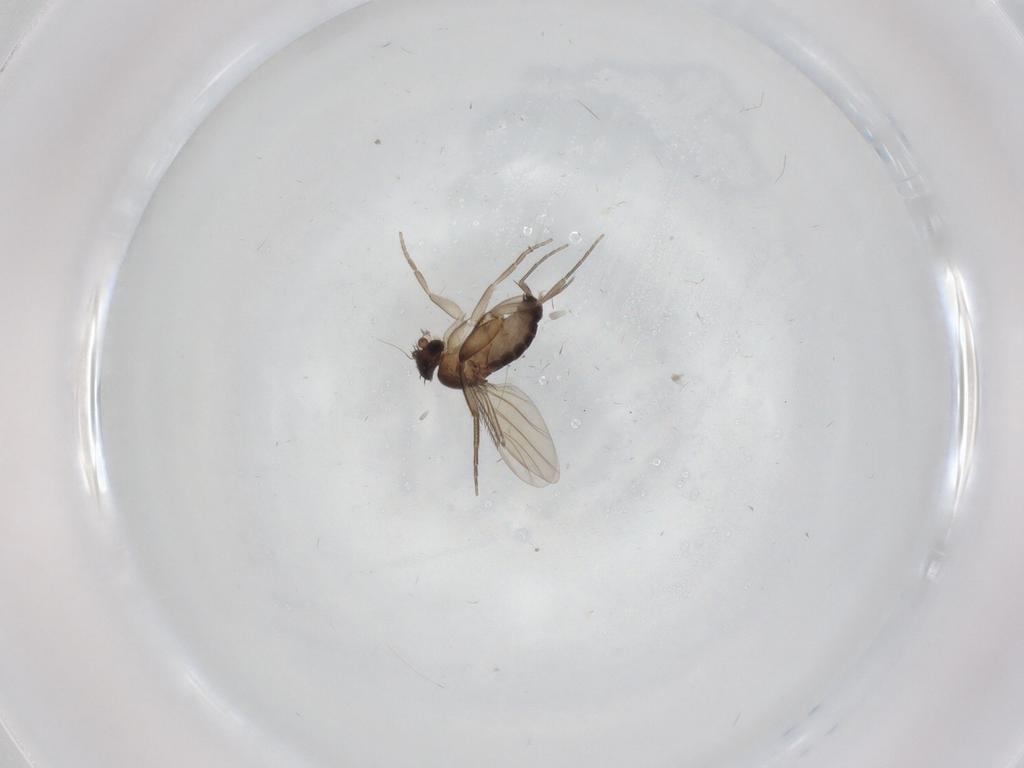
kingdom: Animalia
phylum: Arthropoda
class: Insecta
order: Diptera
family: Phoridae
